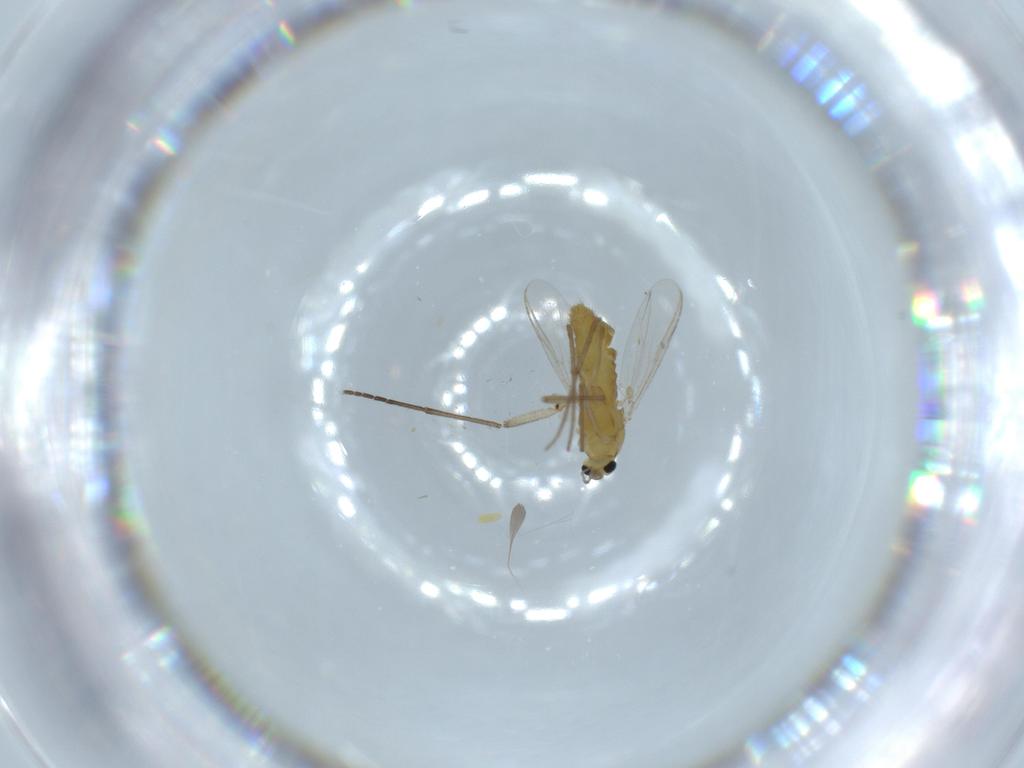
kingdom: Animalia
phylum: Arthropoda
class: Insecta
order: Diptera
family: Chironomidae
